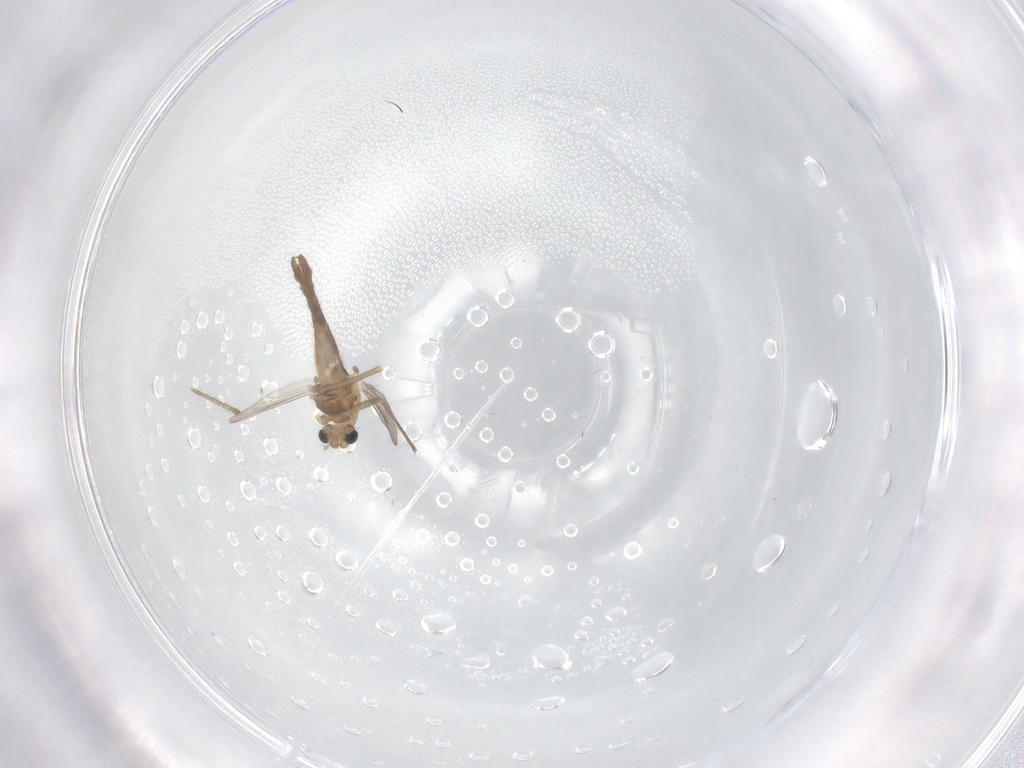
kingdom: Animalia
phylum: Arthropoda
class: Insecta
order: Diptera
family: Chironomidae
